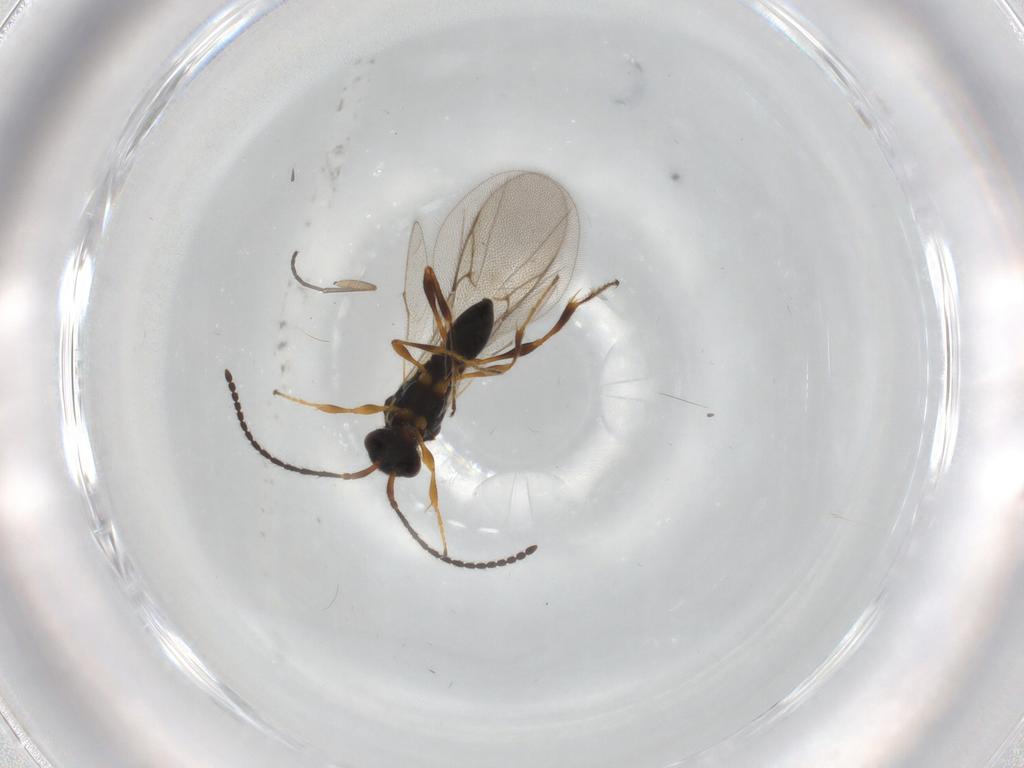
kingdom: Animalia
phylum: Arthropoda
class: Insecta
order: Hymenoptera
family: Diapriidae
